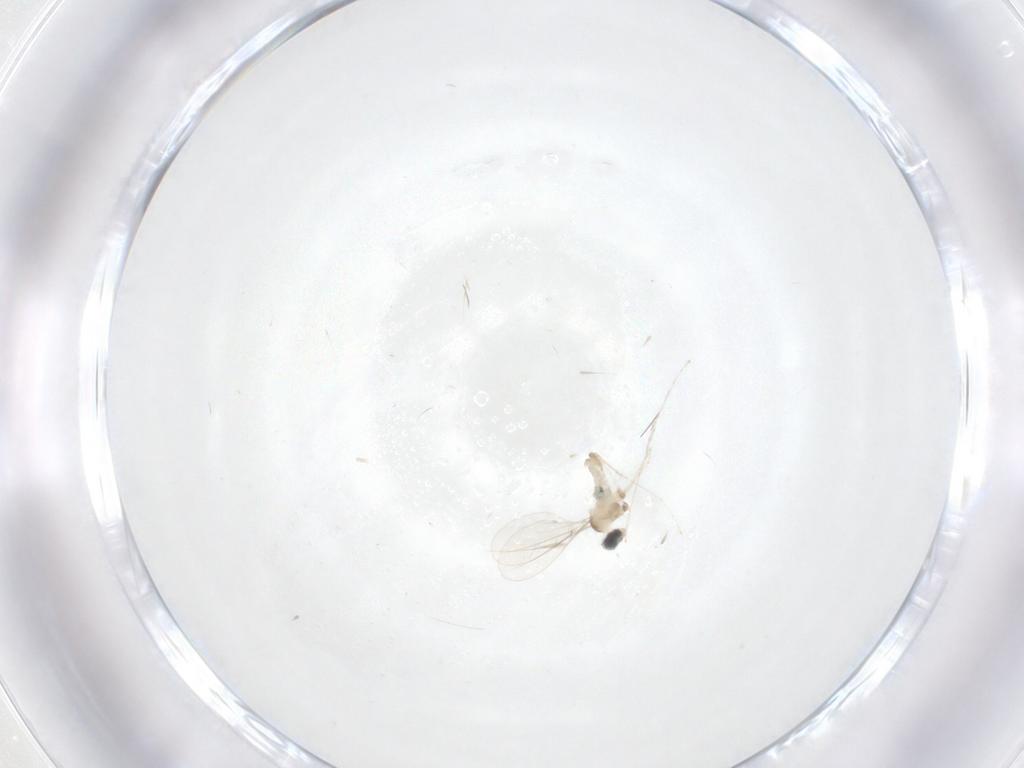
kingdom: Animalia
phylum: Arthropoda
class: Insecta
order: Diptera
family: Cecidomyiidae
